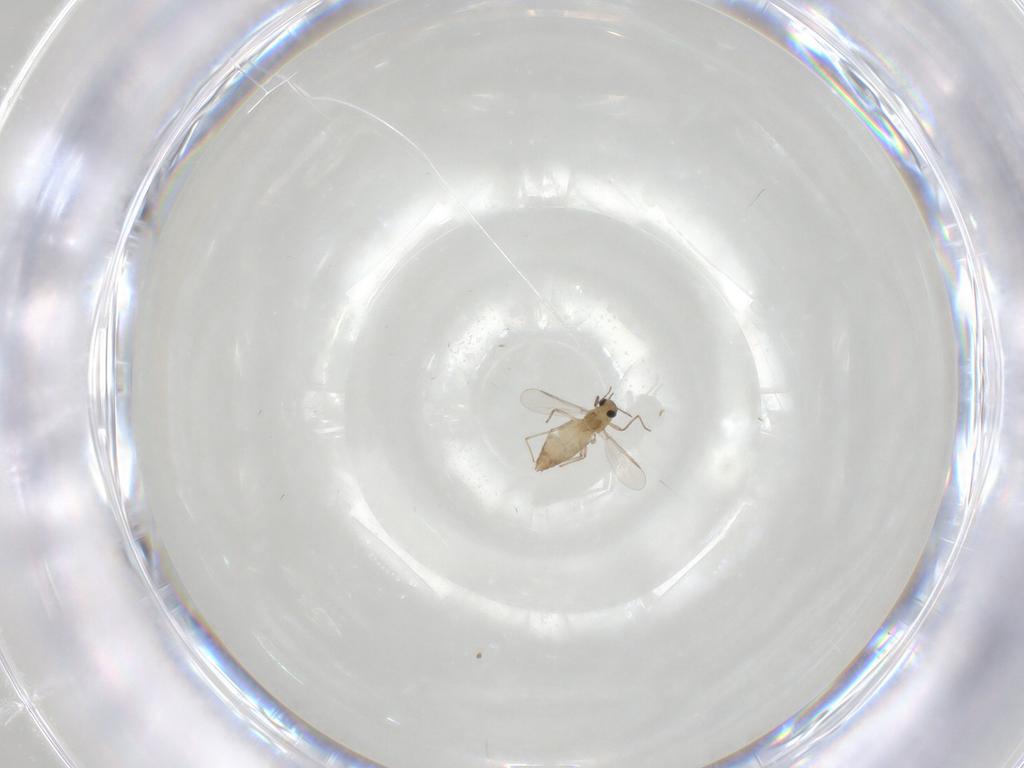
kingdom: Animalia
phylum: Arthropoda
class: Insecta
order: Diptera
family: Chironomidae
